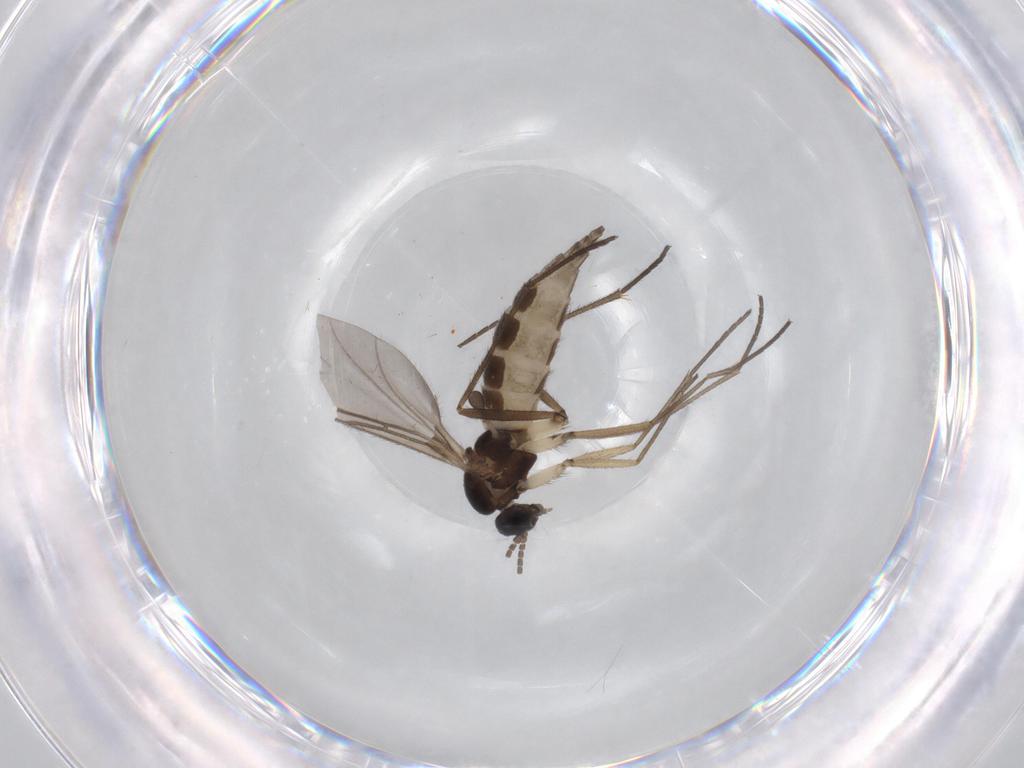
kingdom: Animalia
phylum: Arthropoda
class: Insecta
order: Diptera
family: Sciaridae
